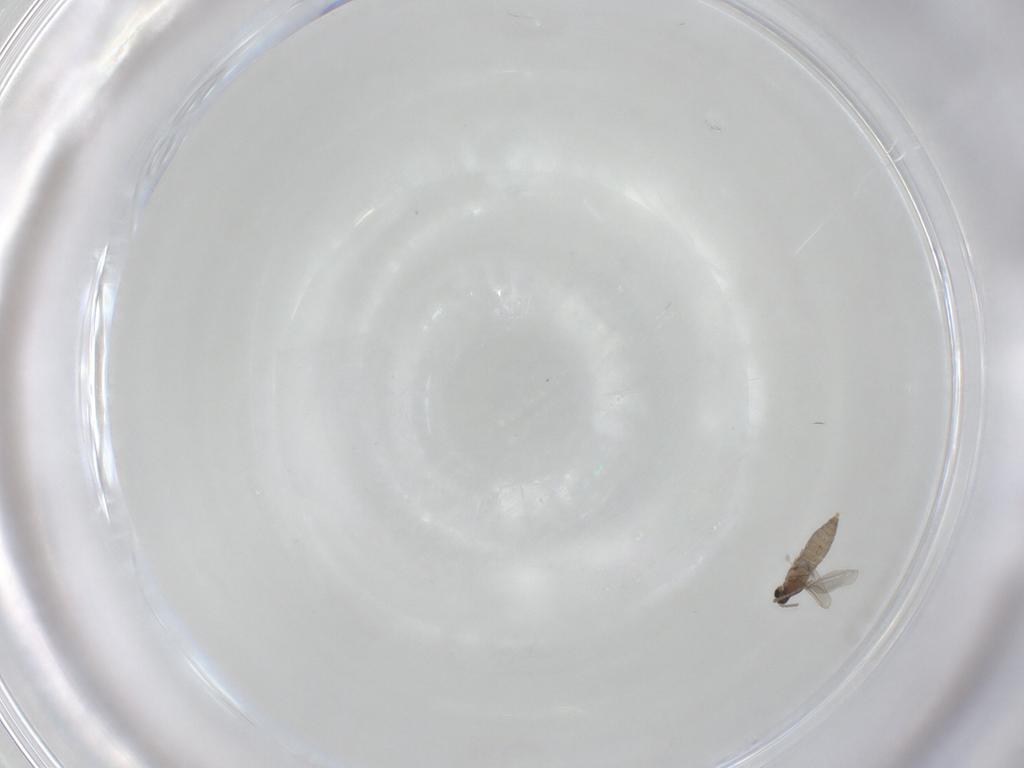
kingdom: Animalia
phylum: Arthropoda
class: Insecta
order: Diptera
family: Cecidomyiidae
